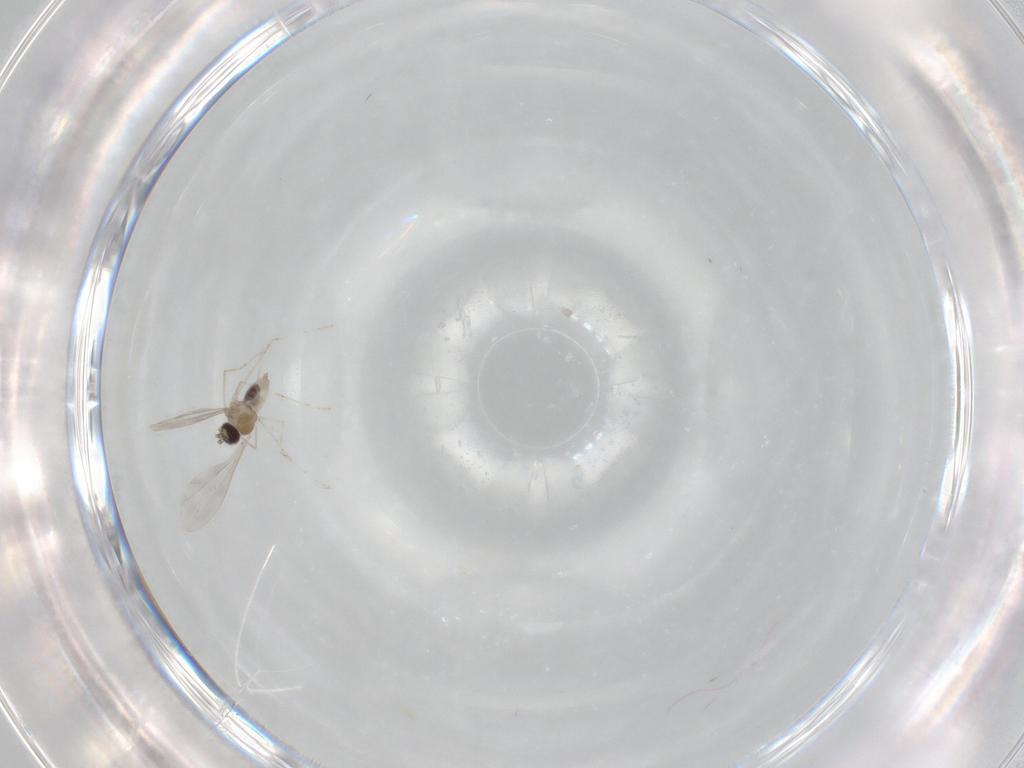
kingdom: Animalia
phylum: Arthropoda
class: Insecta
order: Diptera
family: Cecidomyiidae
